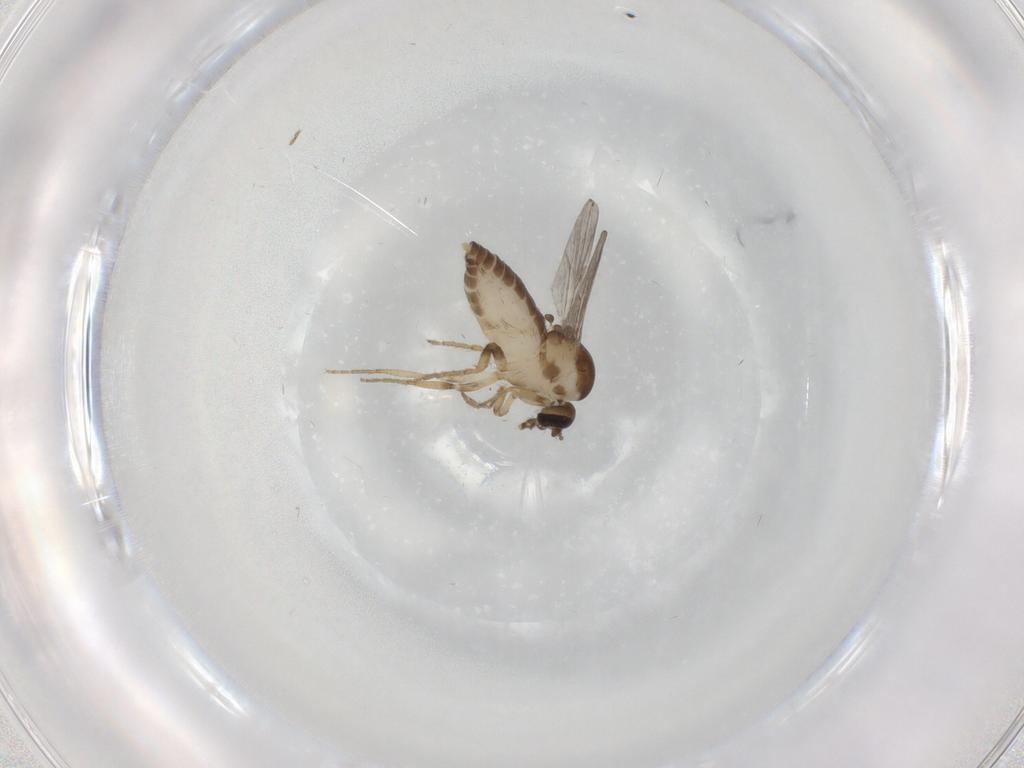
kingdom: Animalia
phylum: Arthropoda
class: Insecta
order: Diptera
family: Ceratopogonidae
